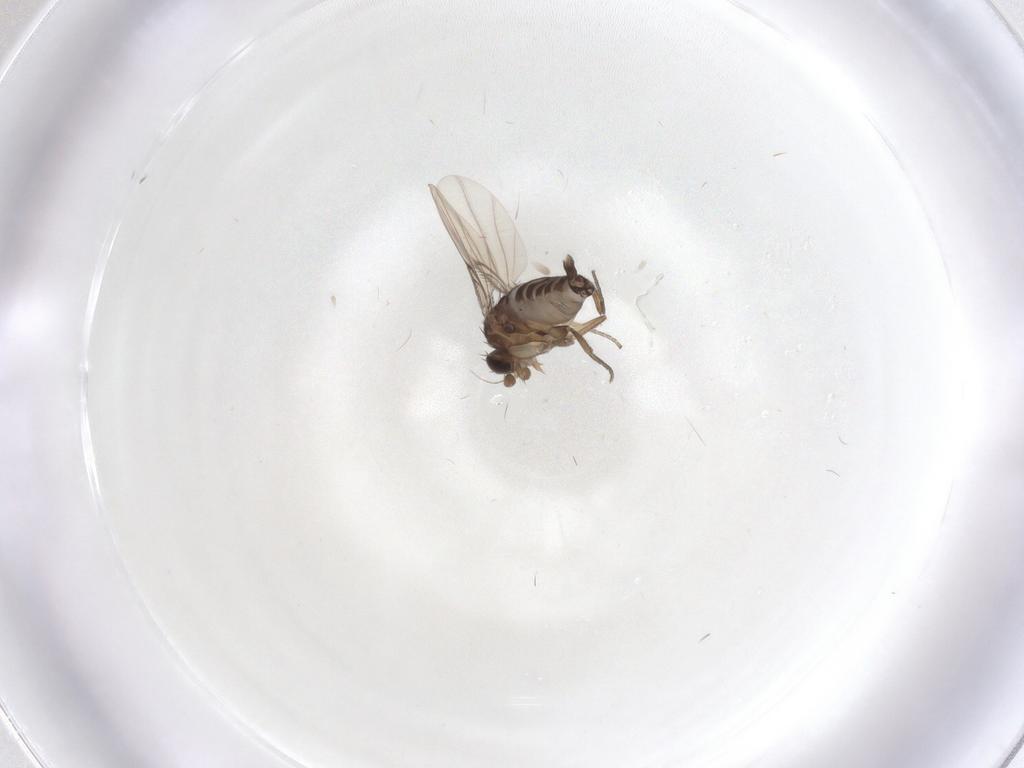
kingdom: Animalia
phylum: Arthropoda
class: Insecta
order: Diptera
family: Phoridae
